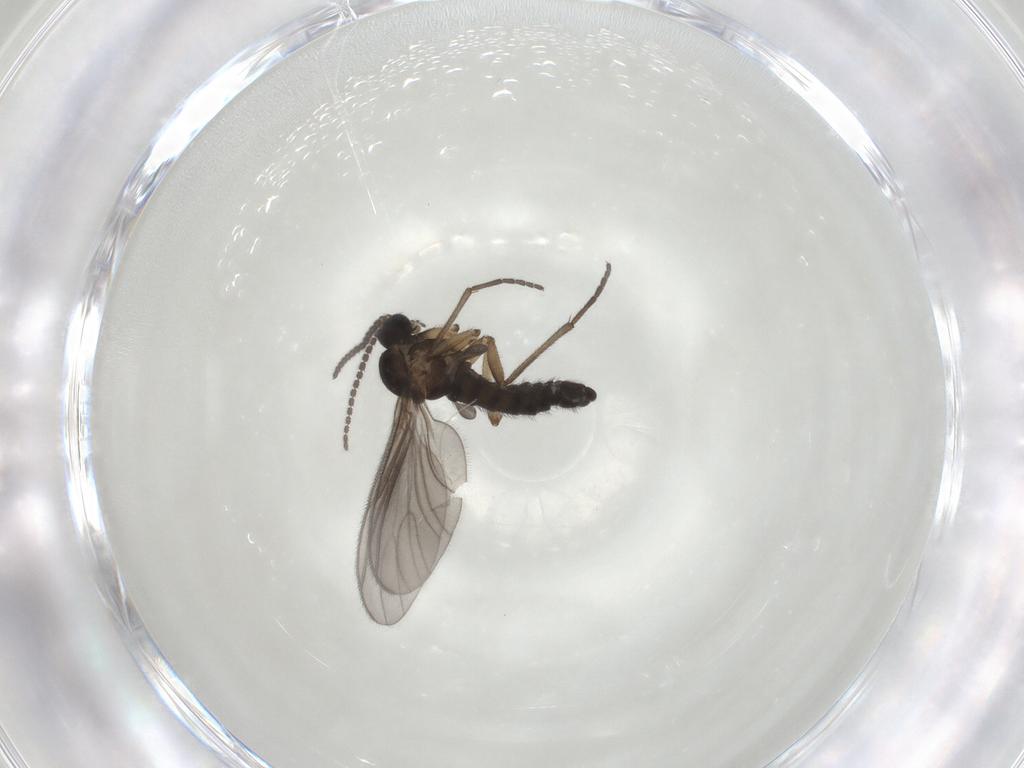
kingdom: Animalia
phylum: Arthropoda
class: Insecta
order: Diptera
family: Sciaridae
